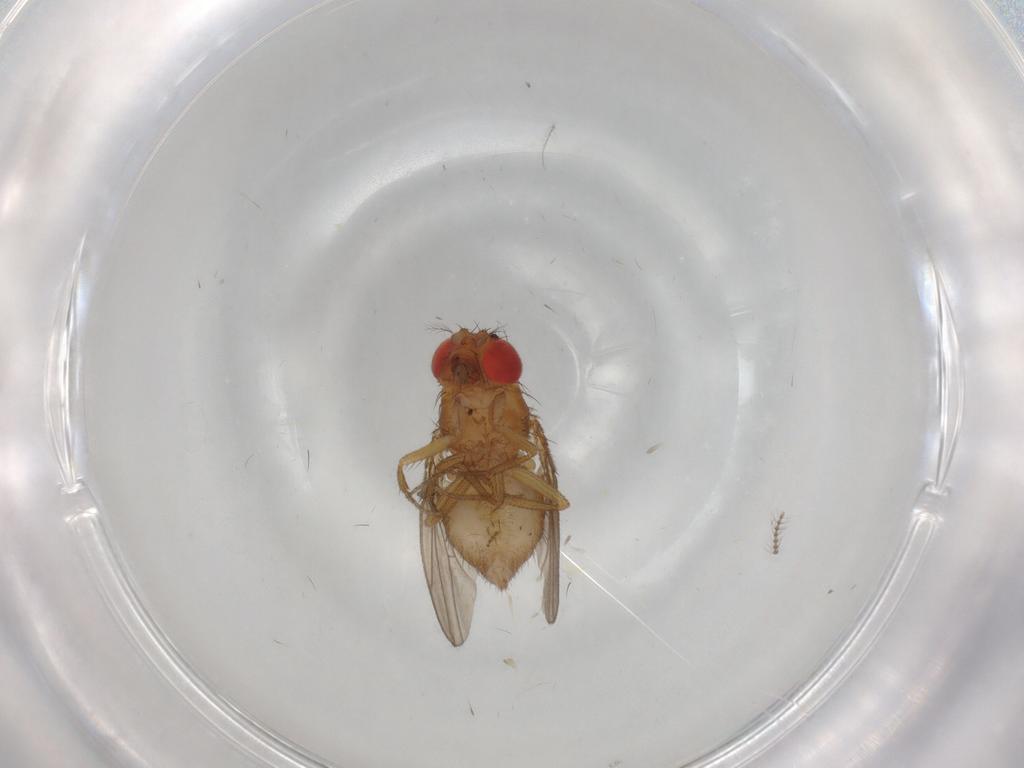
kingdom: Animalia
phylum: Arthropoda
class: Insecta
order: Diptera
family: Drosophilidae
